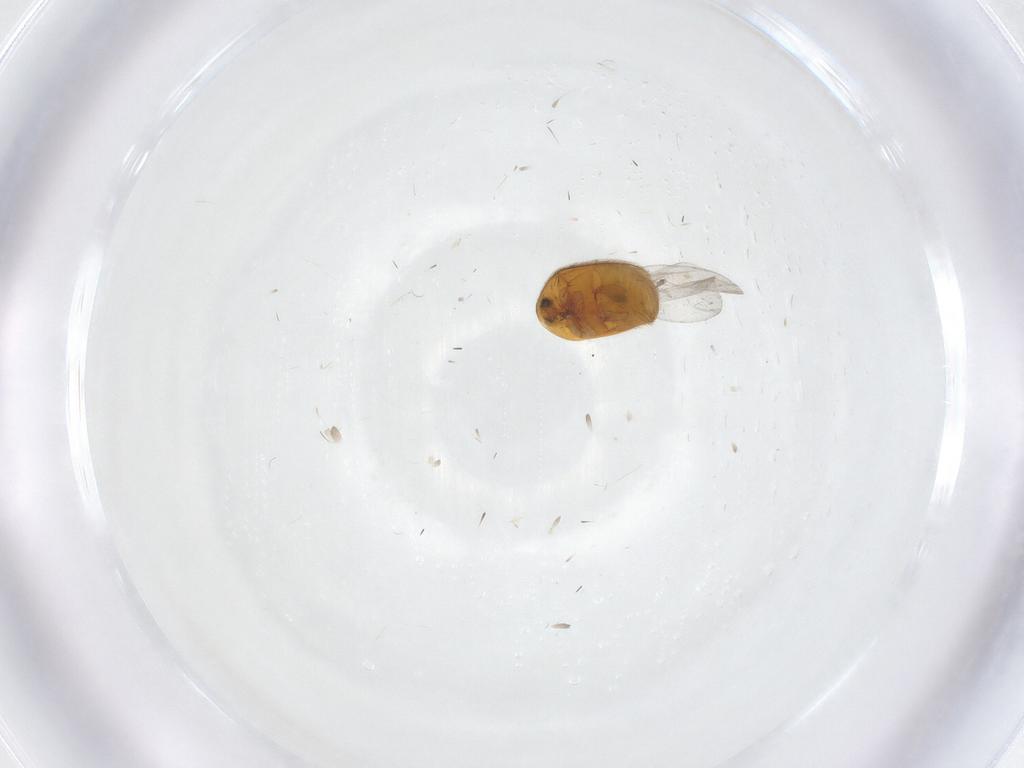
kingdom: Animalia
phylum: Arthropoda
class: Insecta
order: Coleoptera
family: Corylophidae
